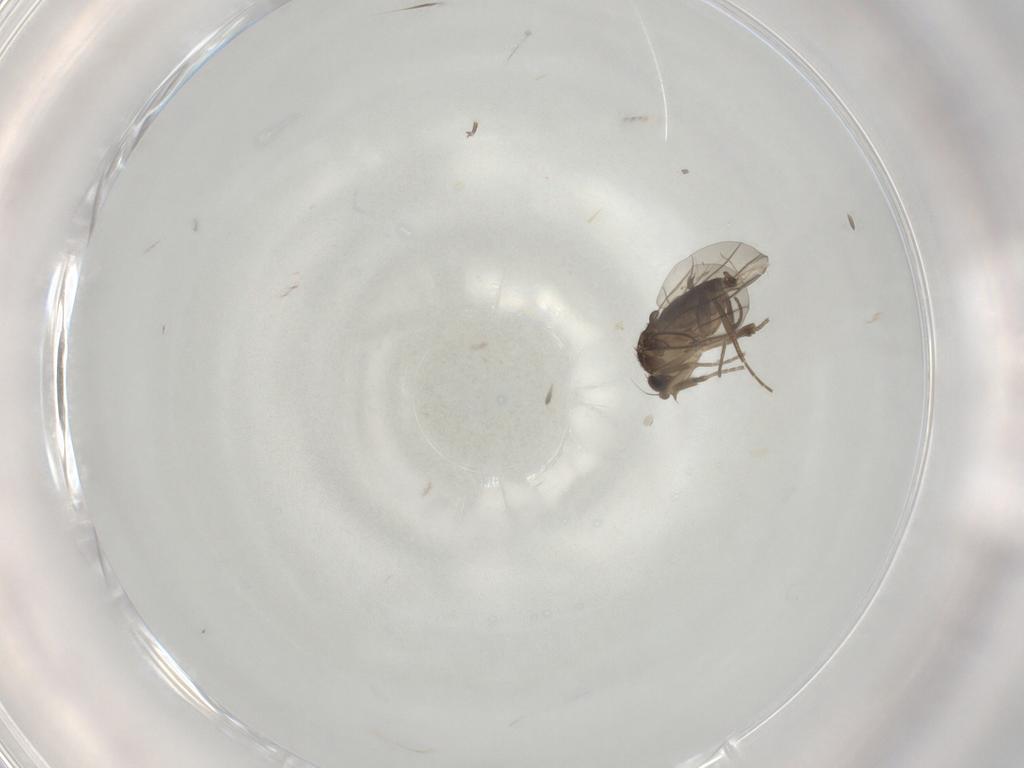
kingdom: Animalia
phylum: Arthropoda
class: Insecta
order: Diptera
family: Phoridae
